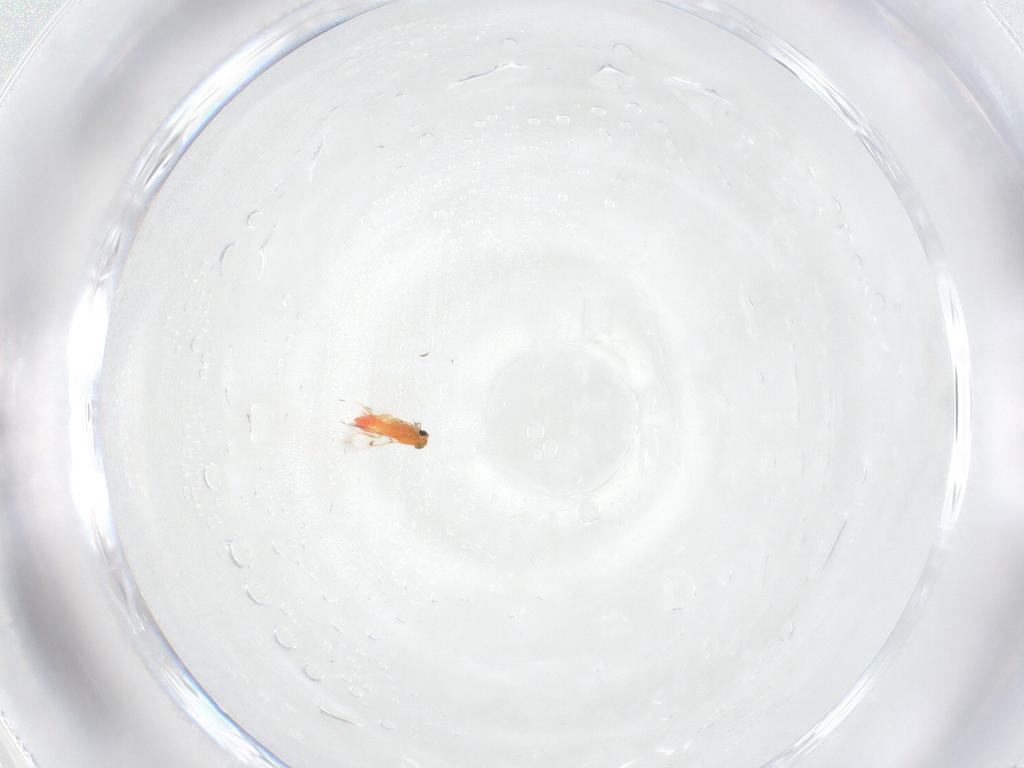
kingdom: Animalia
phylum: Arthropoda
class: Insecta
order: Hymenoptera
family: Trichogrammatidae
